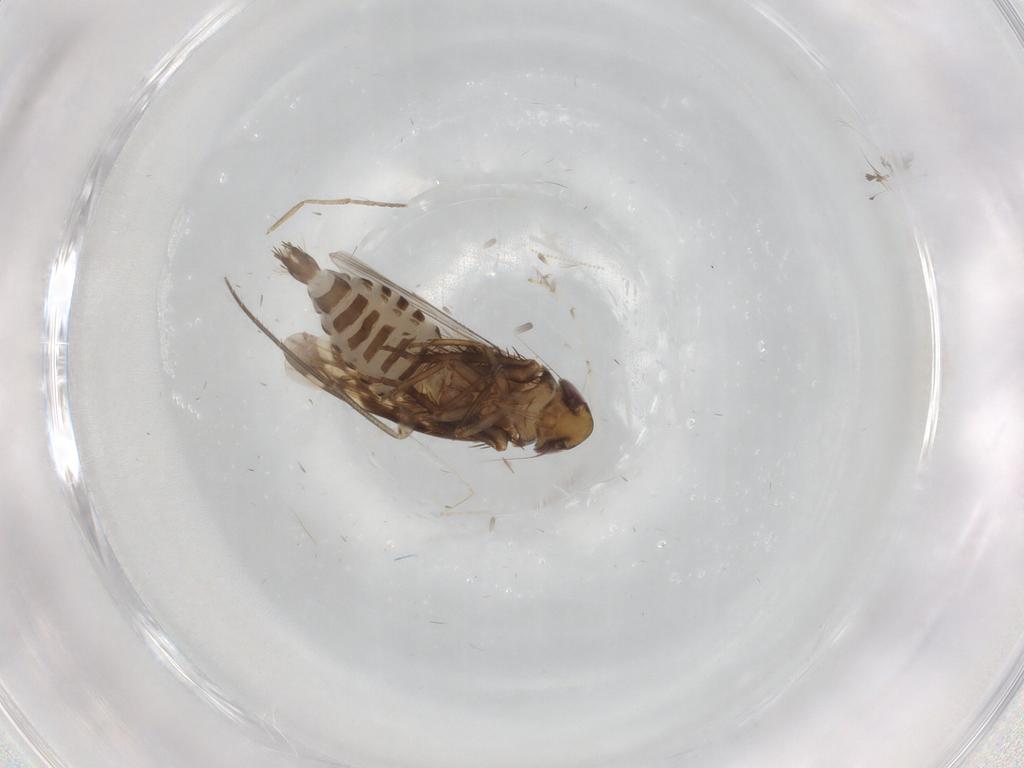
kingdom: Animalia
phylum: Arthropoda
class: Insecta
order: Hemiptera
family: Cicadellidae
